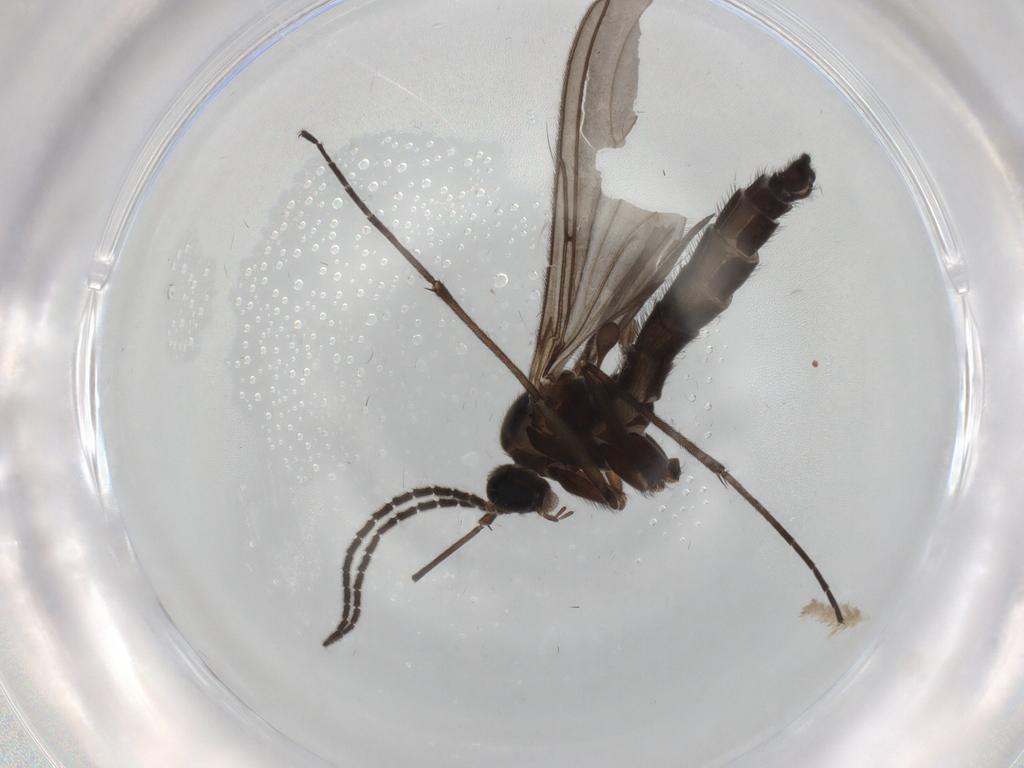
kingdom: Animalia
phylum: Arthropoda
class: Insecta
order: Diptera
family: Sciaridae
